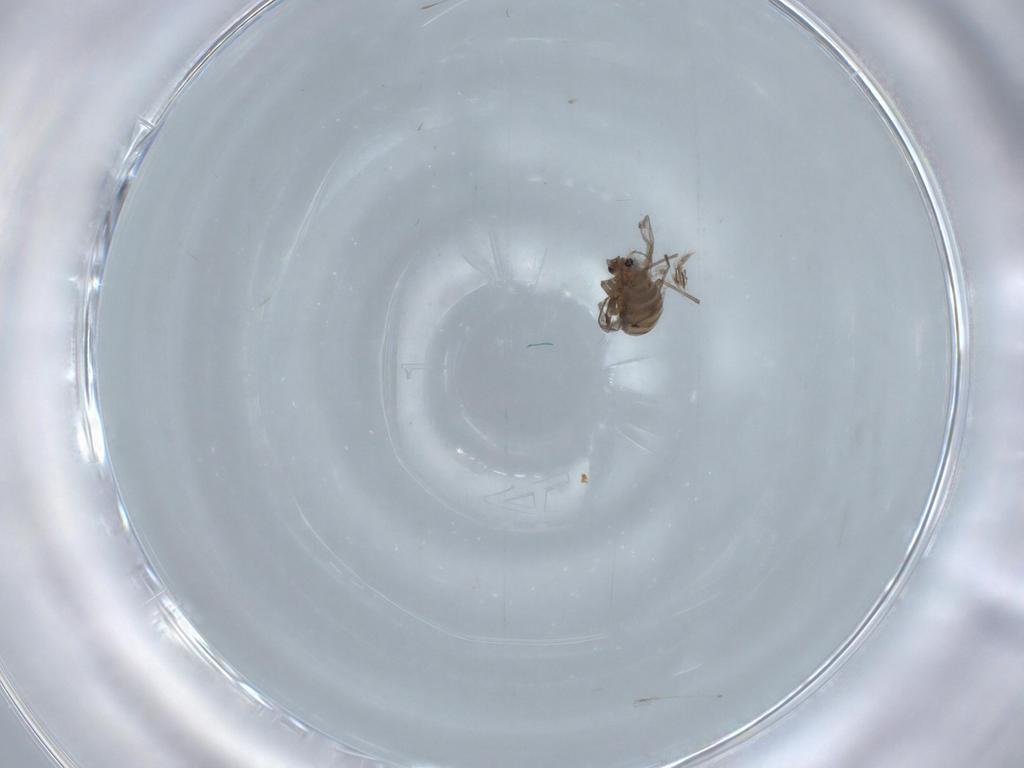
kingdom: Animalia
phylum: Arthropoda
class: Insecta
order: Diptera
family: Chironomidae
